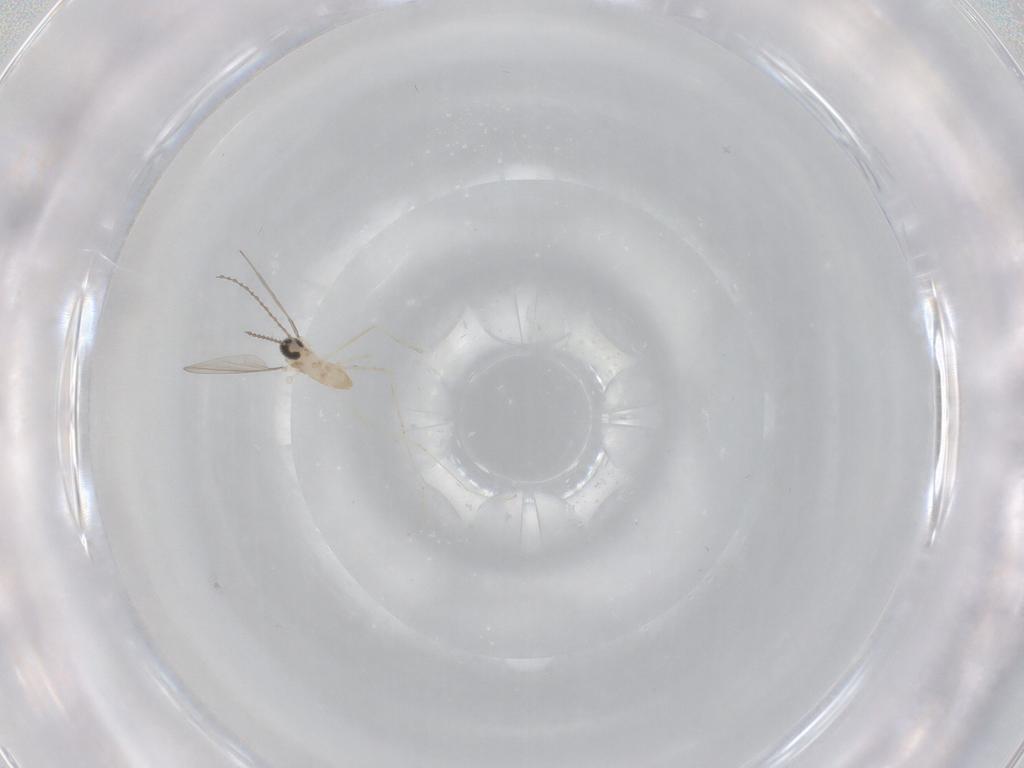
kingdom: Animalia
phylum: Arthropoda
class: Insecta
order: Diptera
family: Cecidomyiidae
